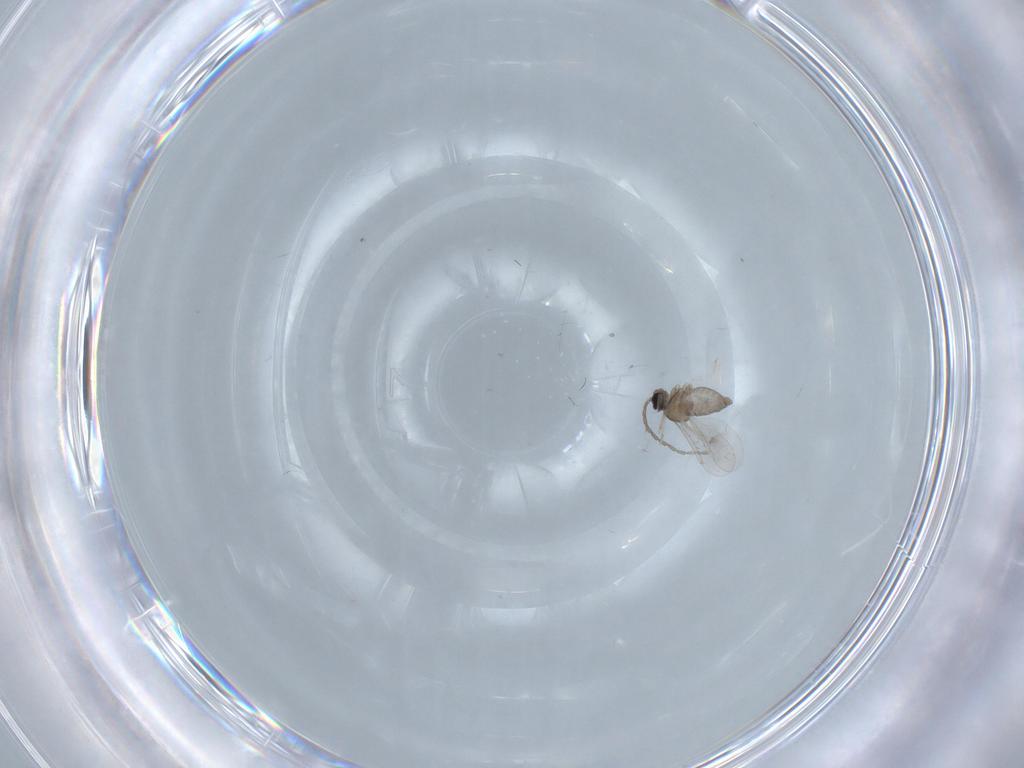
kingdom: Animalia
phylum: Arthropoda
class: Insecta
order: Diptera
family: Cecidomyiidae
